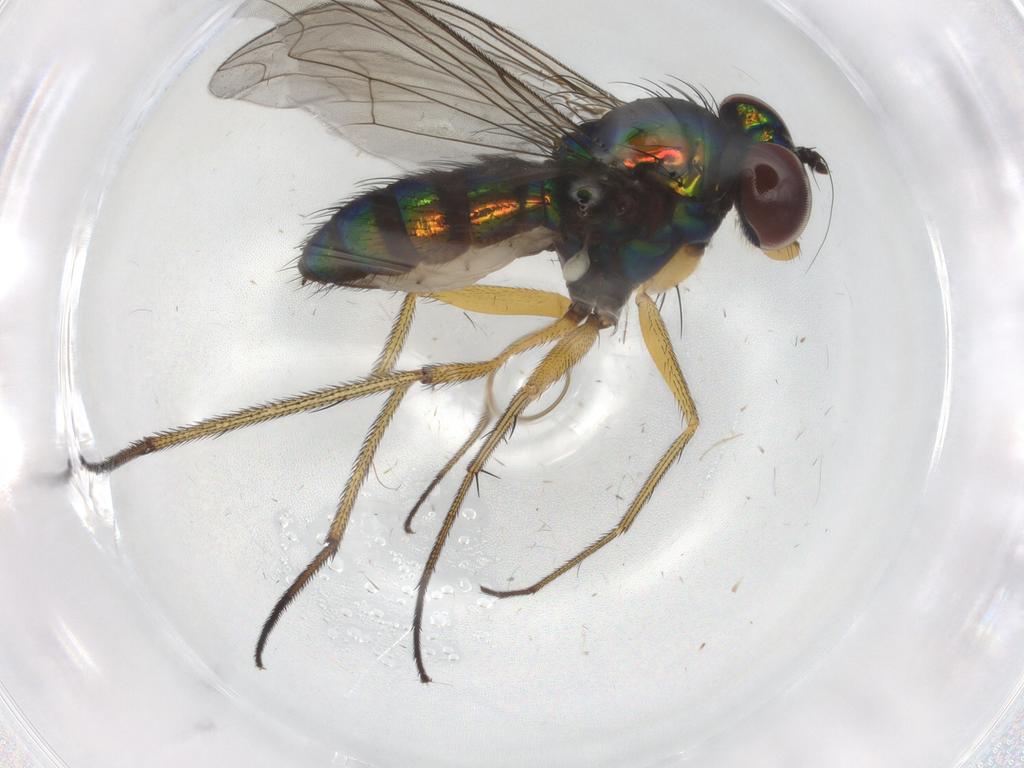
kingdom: Animalia
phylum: Arthropoda
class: Insecta
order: Diptera
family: Dolichopodidae
